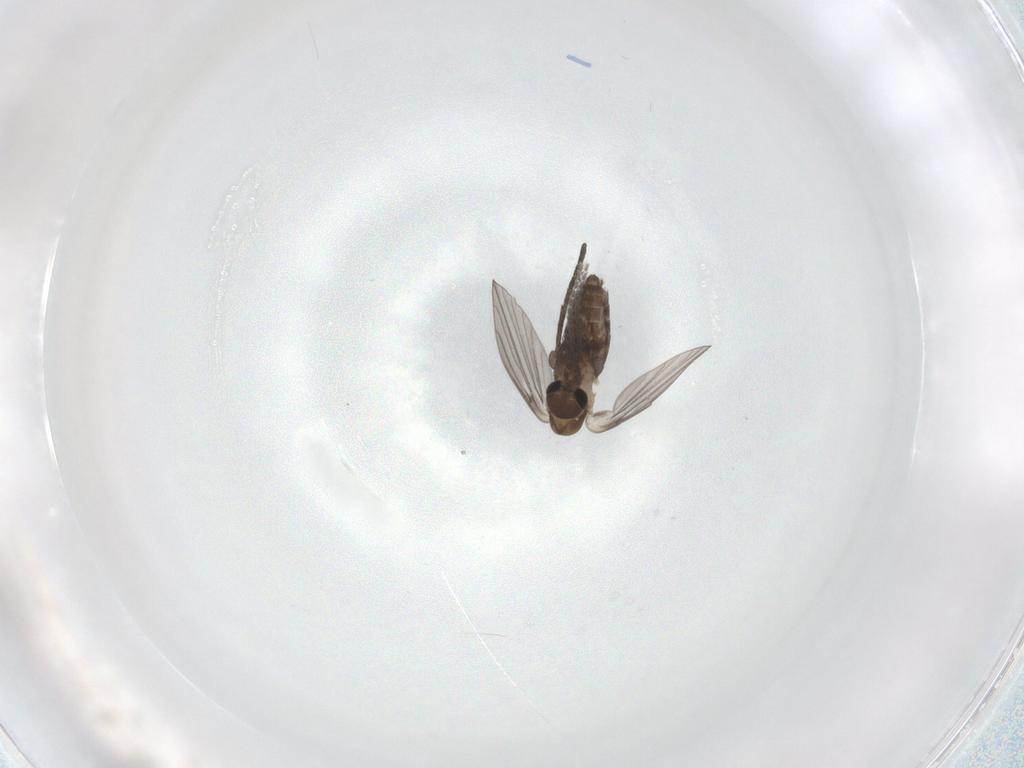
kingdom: Animalia
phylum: Arthropoda
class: Insecta
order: Diptera
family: Psychodidae
